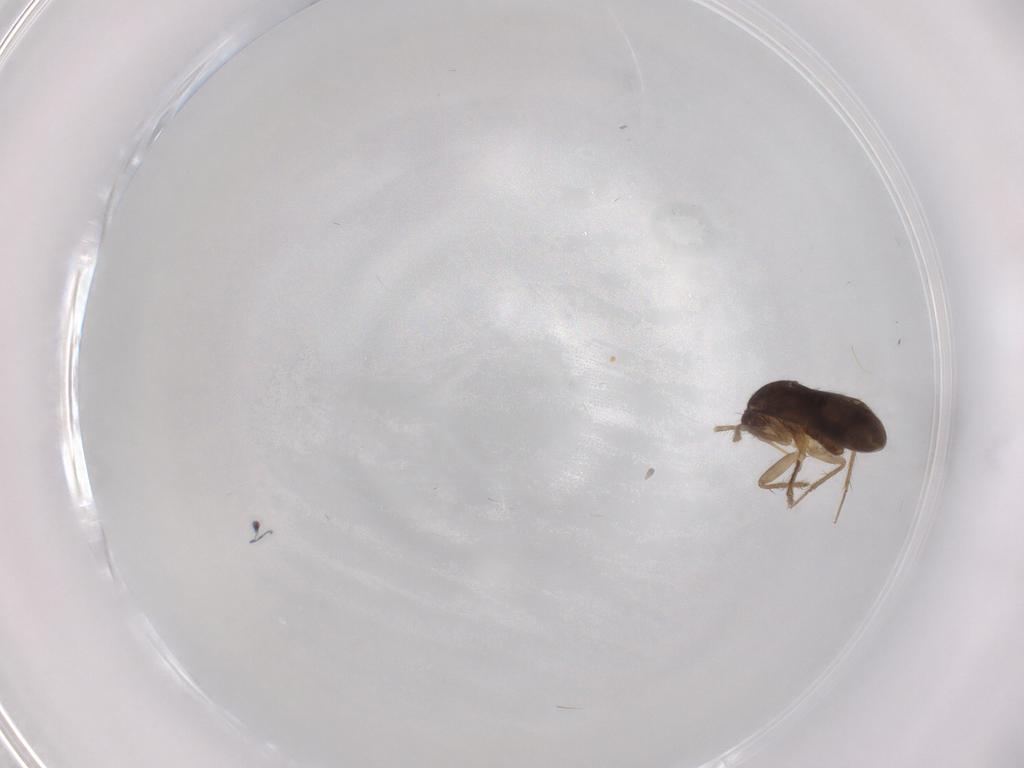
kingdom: Animalia
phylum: Arthropoda
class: Insecta
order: Hemiptera
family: Ceratocombidae
